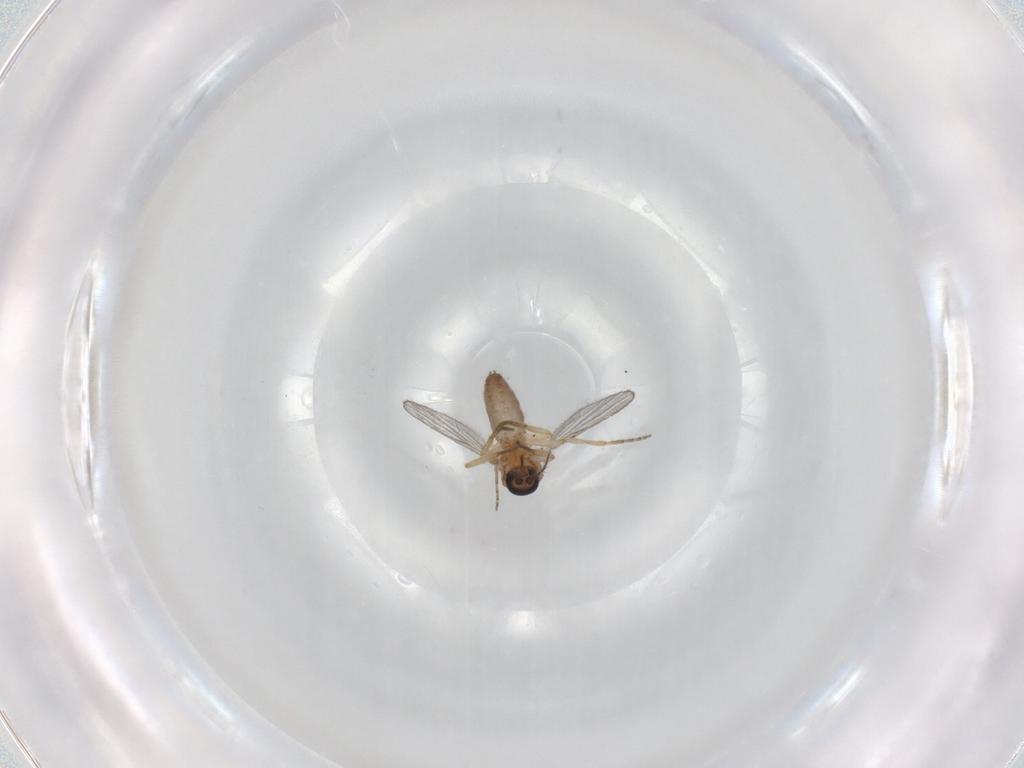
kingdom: Animalia
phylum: Arthropoda
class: Insecta
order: Diptera
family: Ceratopogonidae
